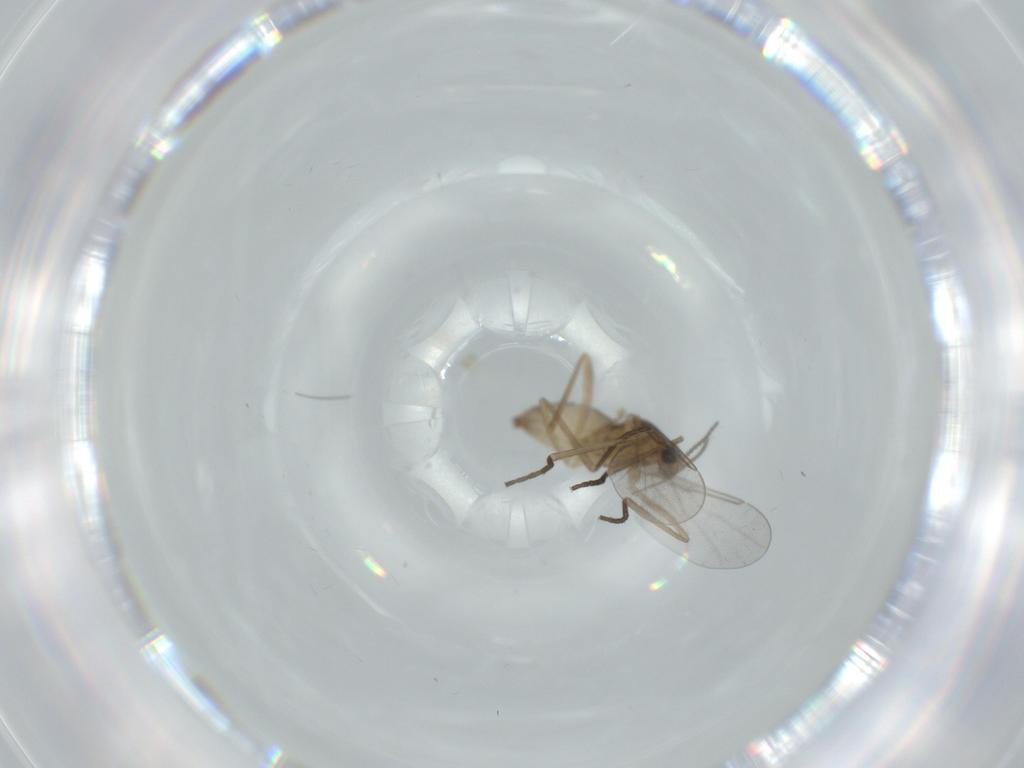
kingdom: Animalia
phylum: Arthropoda
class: Insecta
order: Diptera
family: Cecidomyiidae
